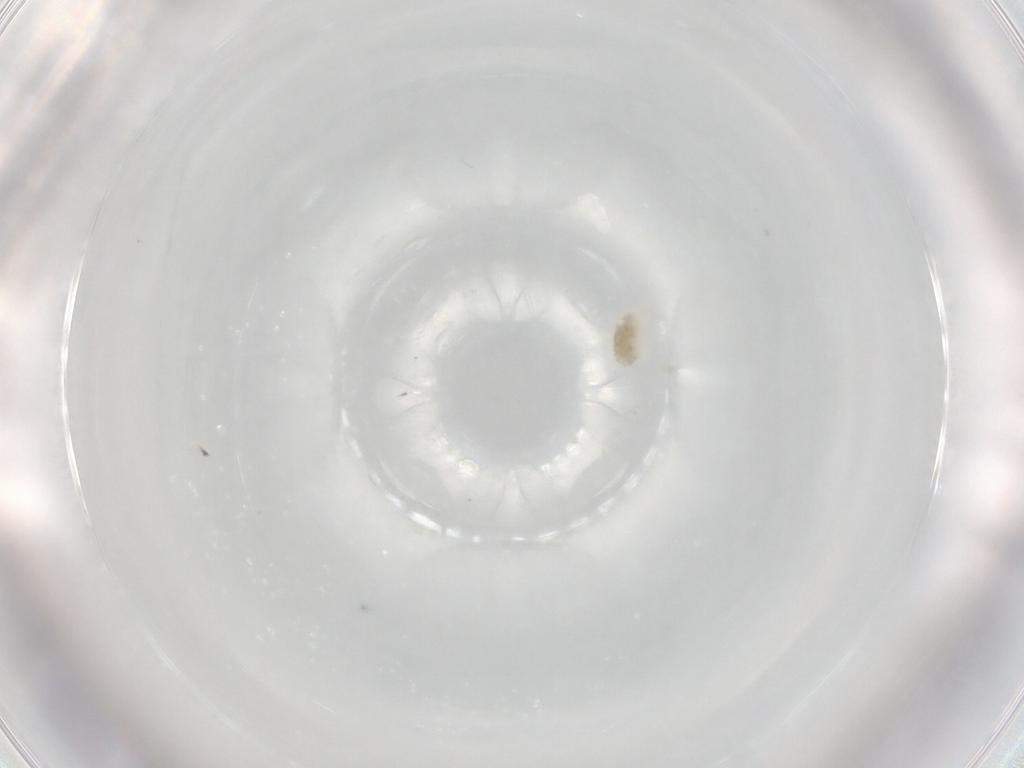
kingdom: Animalia
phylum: Arthropoda
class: Arachnida
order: Trombidiformes
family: Eupodidae
